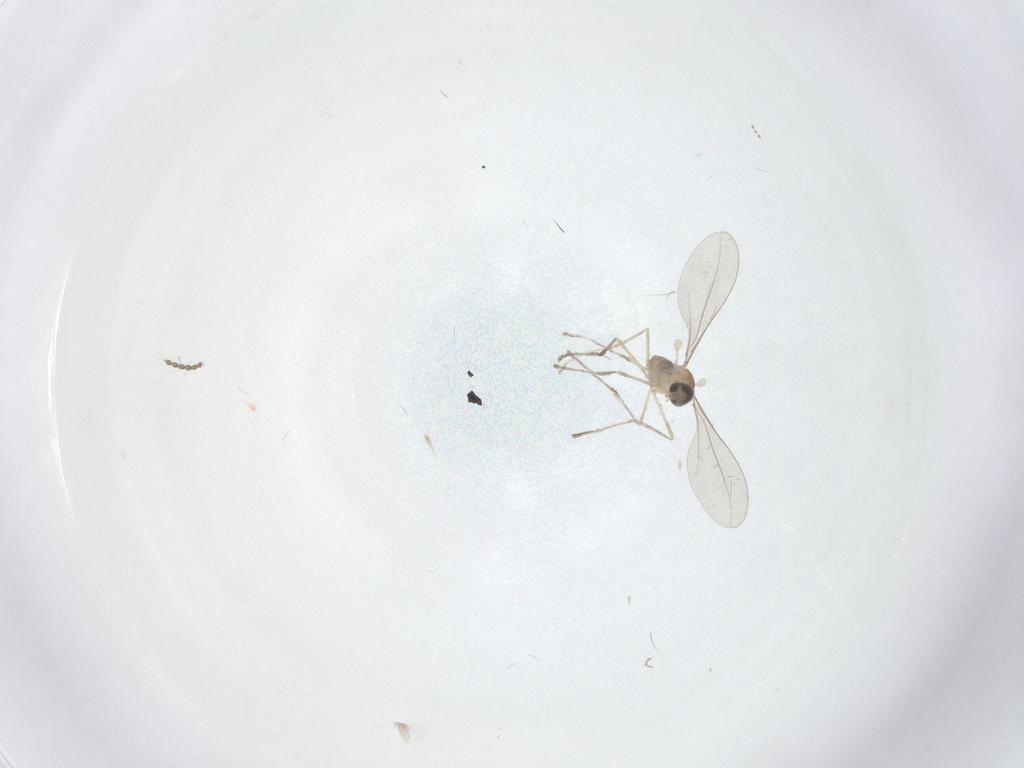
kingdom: Animalia
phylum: Arthropoda
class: Insecta
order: Diptera
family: Cecidomyiidae
